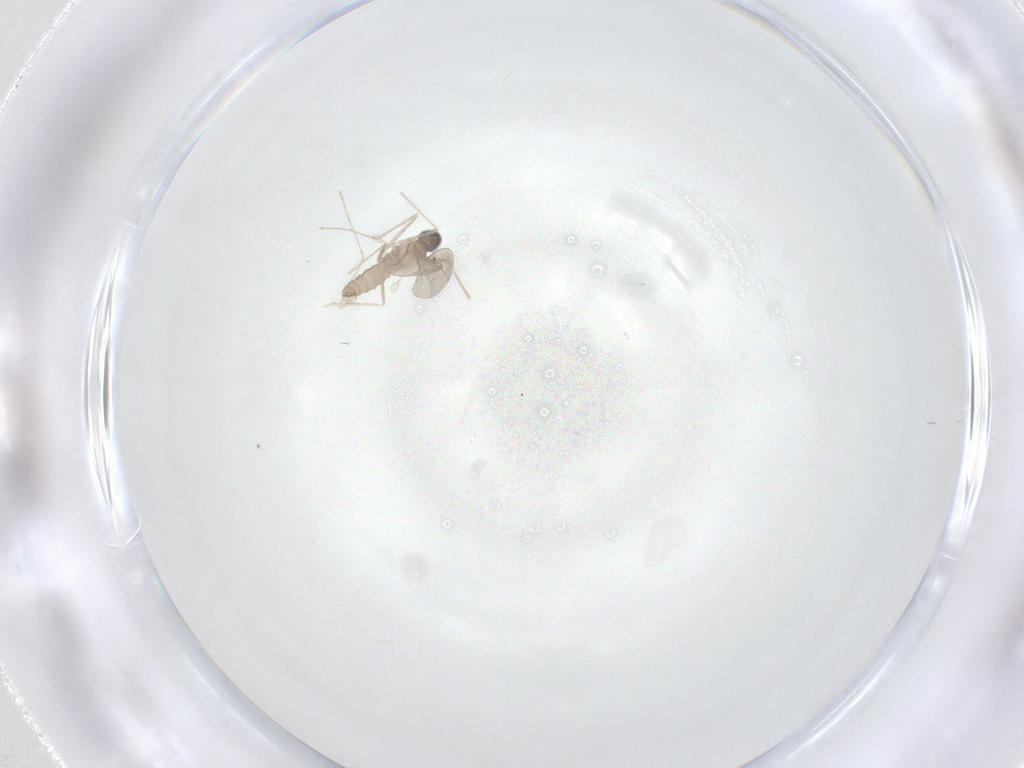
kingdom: Animalia
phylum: Arthropoda
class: Insecta
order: Diptera
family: Cecidomyiidae
